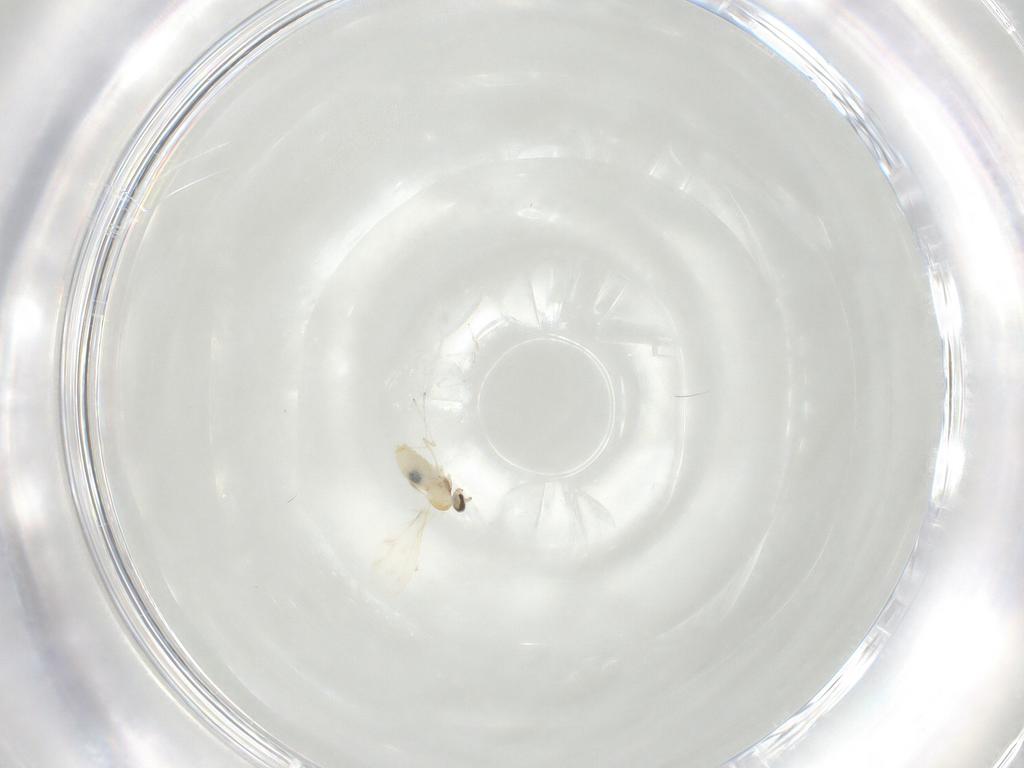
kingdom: Animalia
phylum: Arthropoda
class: Insecta
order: Diptera
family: Cecidomyiidae
